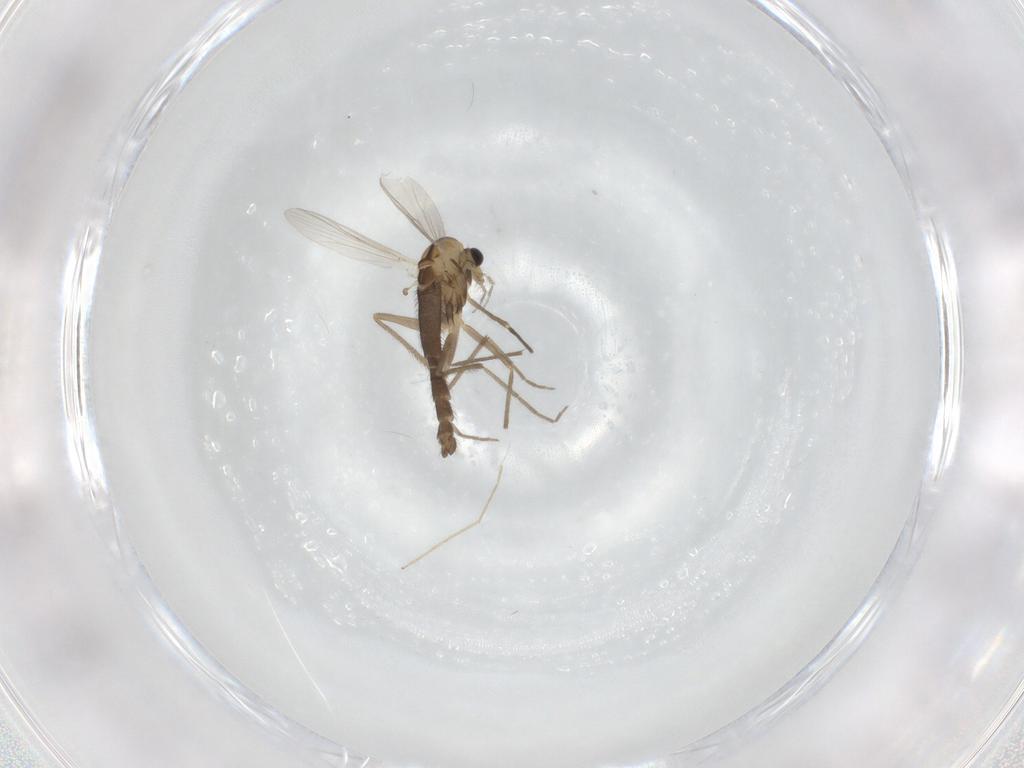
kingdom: Animalia
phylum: Arthropoda
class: Insecta
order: Diptera
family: Chironomidae
